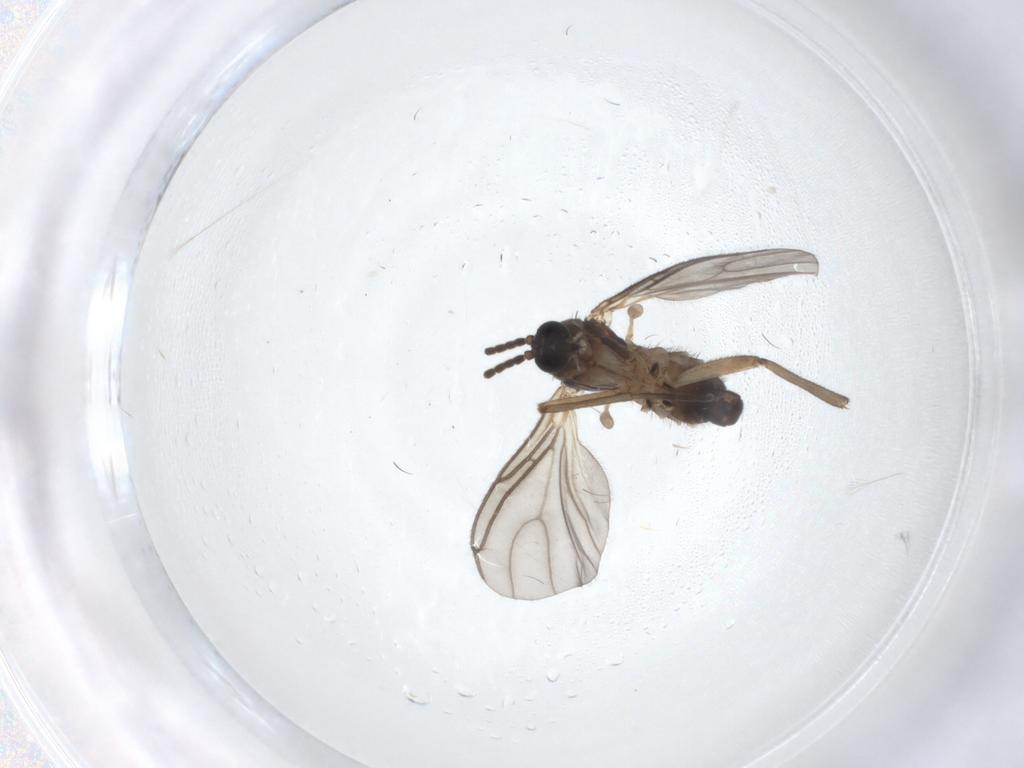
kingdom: Animalia
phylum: Arthropoda
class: Insecta
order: Diptera
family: Sciaridae
